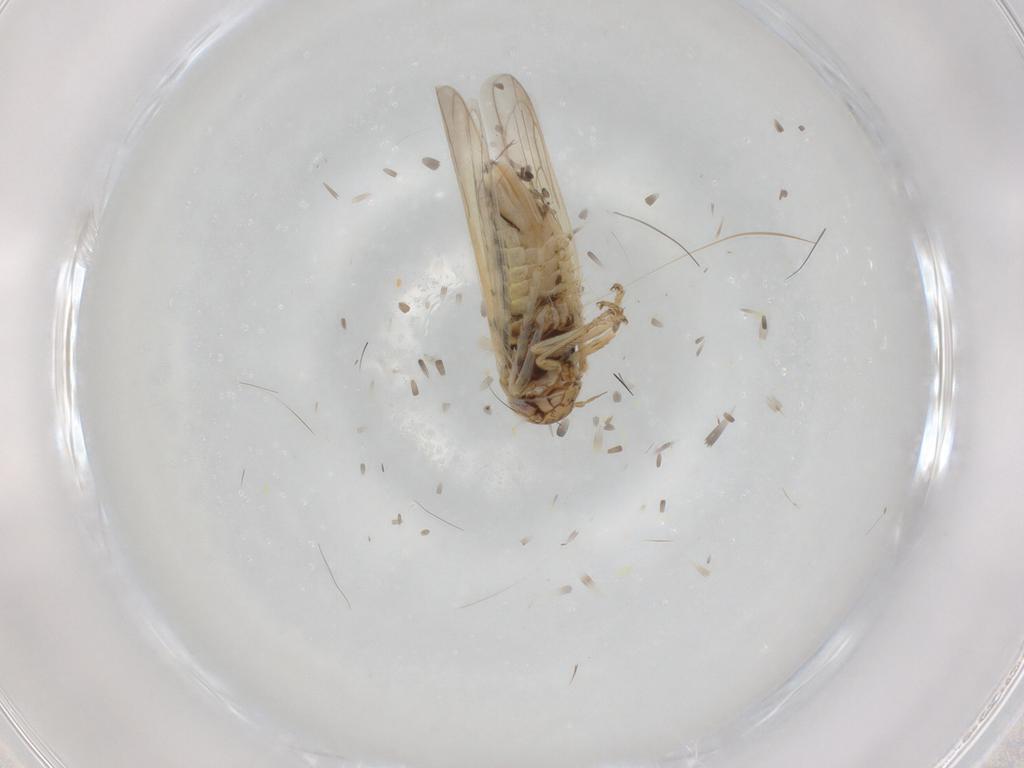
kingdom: Animalia
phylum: Arthropoda
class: Insecta
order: Hemiptera
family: Cicadellidae
